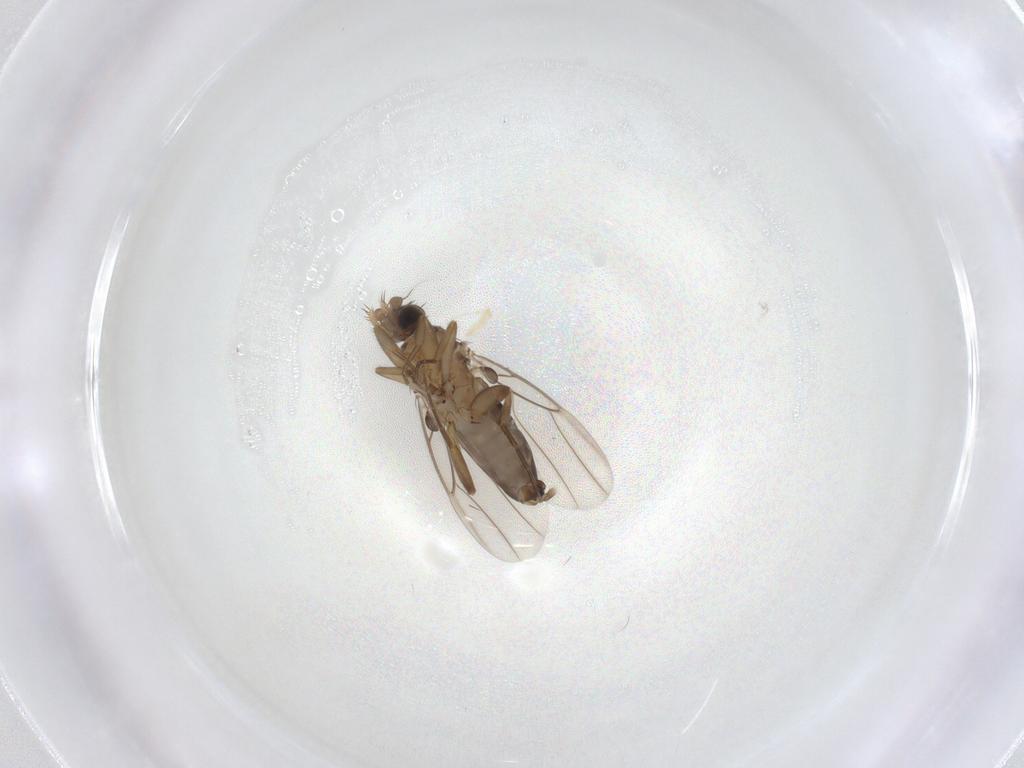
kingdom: Animalia
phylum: Arthropoda
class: Insecta
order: Diptera
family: Phoridae
